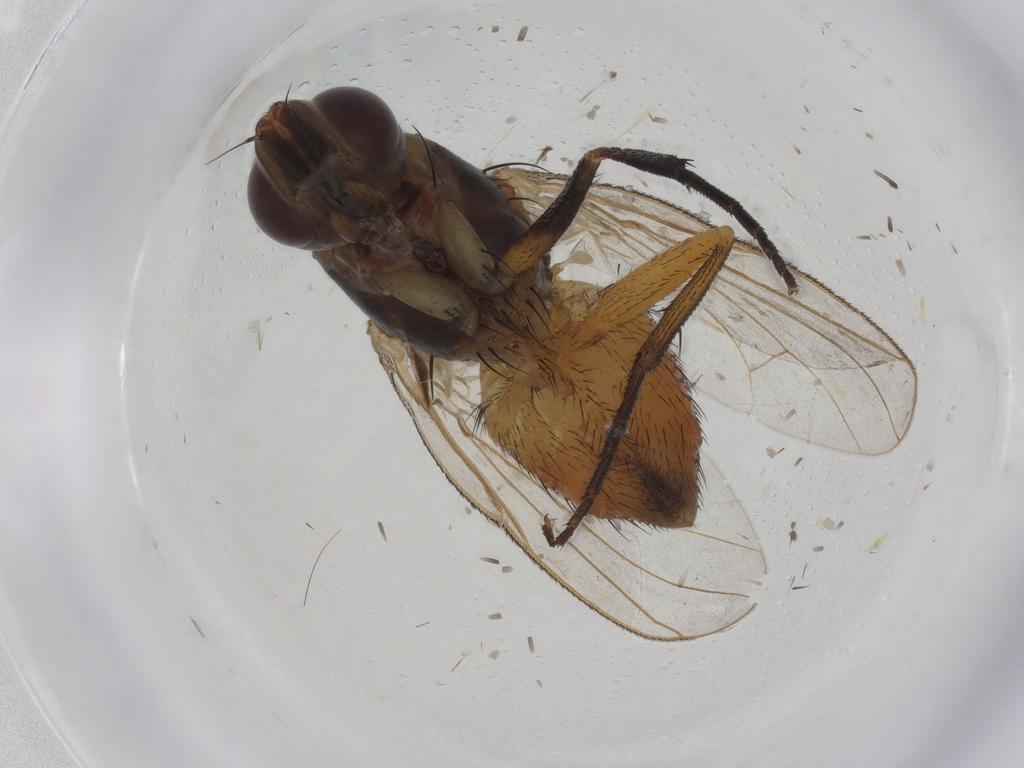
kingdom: Animalia
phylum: Arthropoda
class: Insecta
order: Diptera
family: Muscidae
